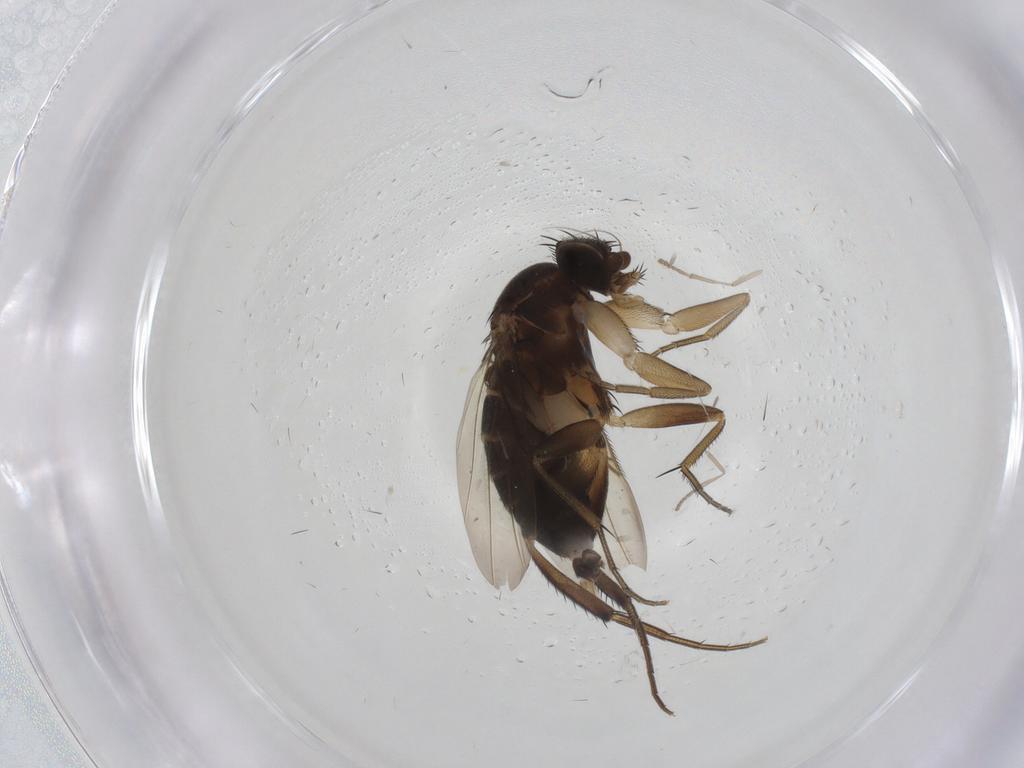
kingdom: Animalia
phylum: Arthropoda
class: Insecta
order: Diptera
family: Phoridae
